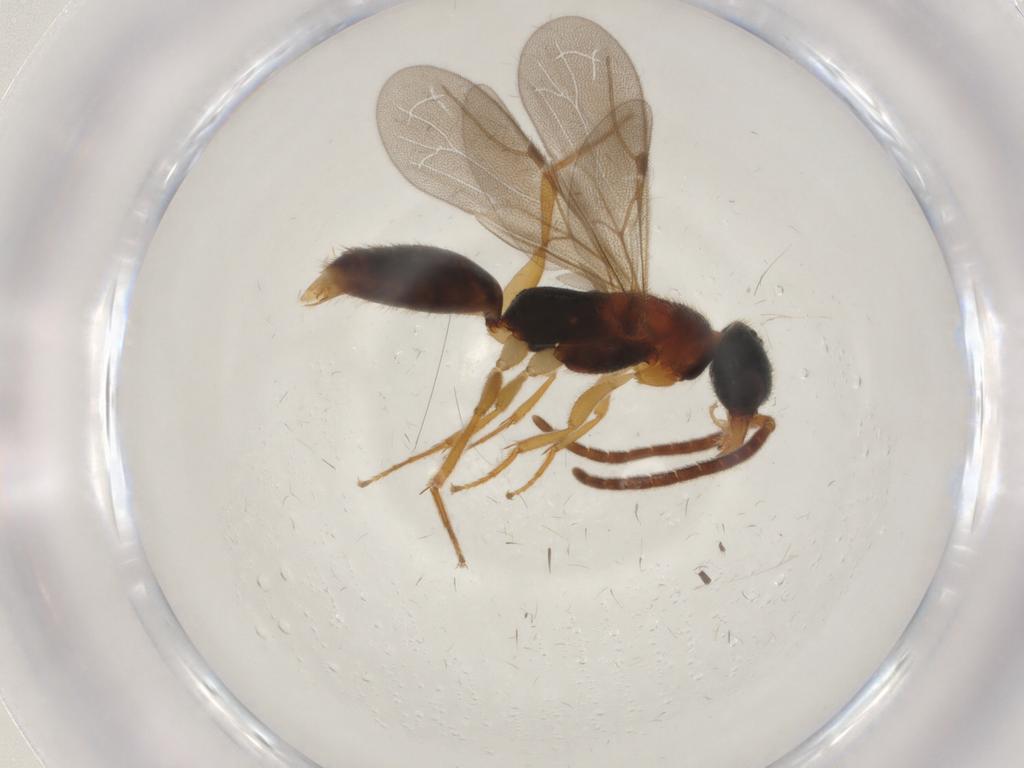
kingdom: Animalia
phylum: Arthropoda
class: Insecta
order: Hymenoptera
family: Bethylidae
